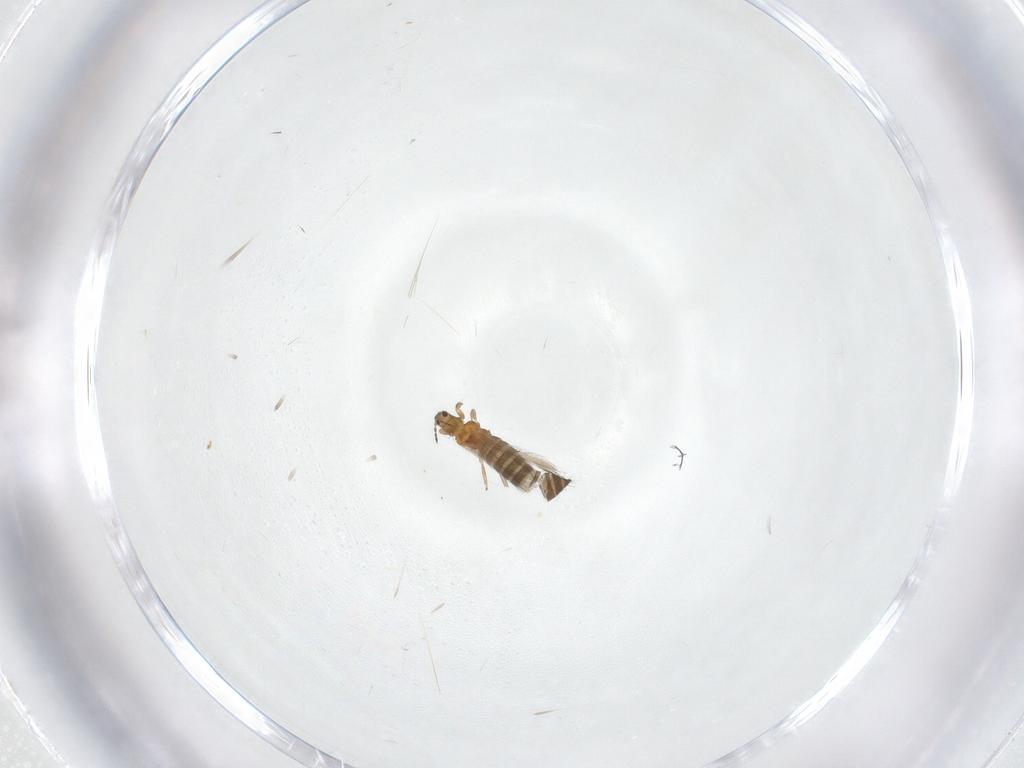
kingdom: Animalia
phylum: Arthropoda
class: Insecta
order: Thysanoptera
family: Thripidae
